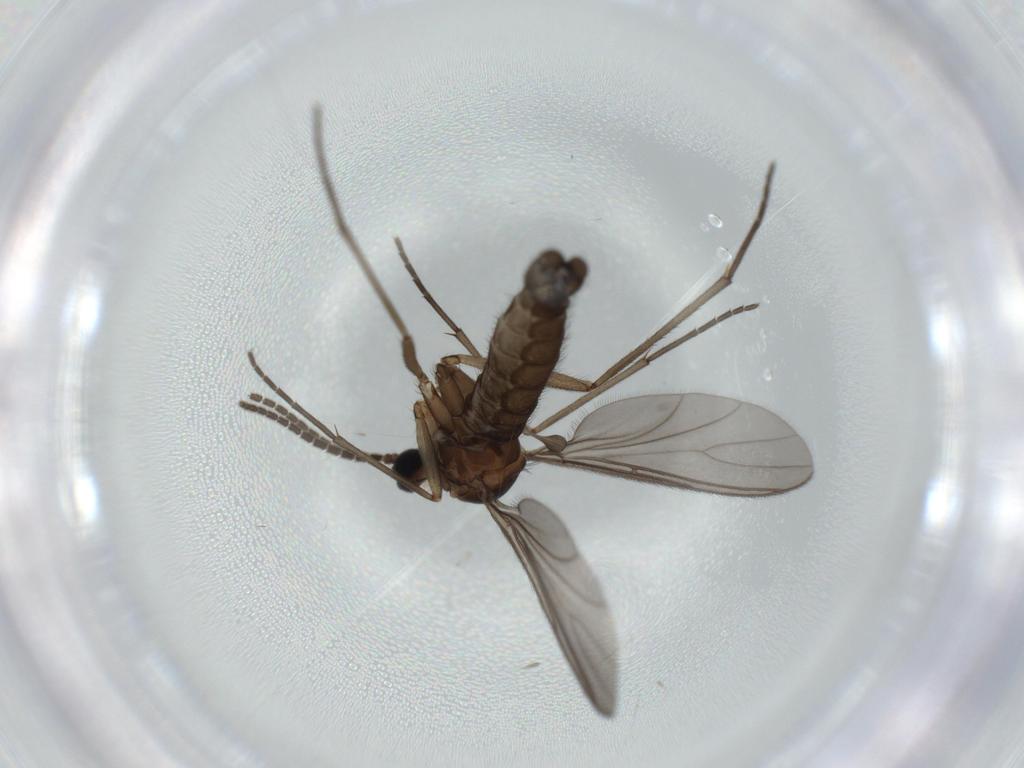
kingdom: Animalia
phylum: Arthropoda
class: Insecta
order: Diptera
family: Sciaridae
